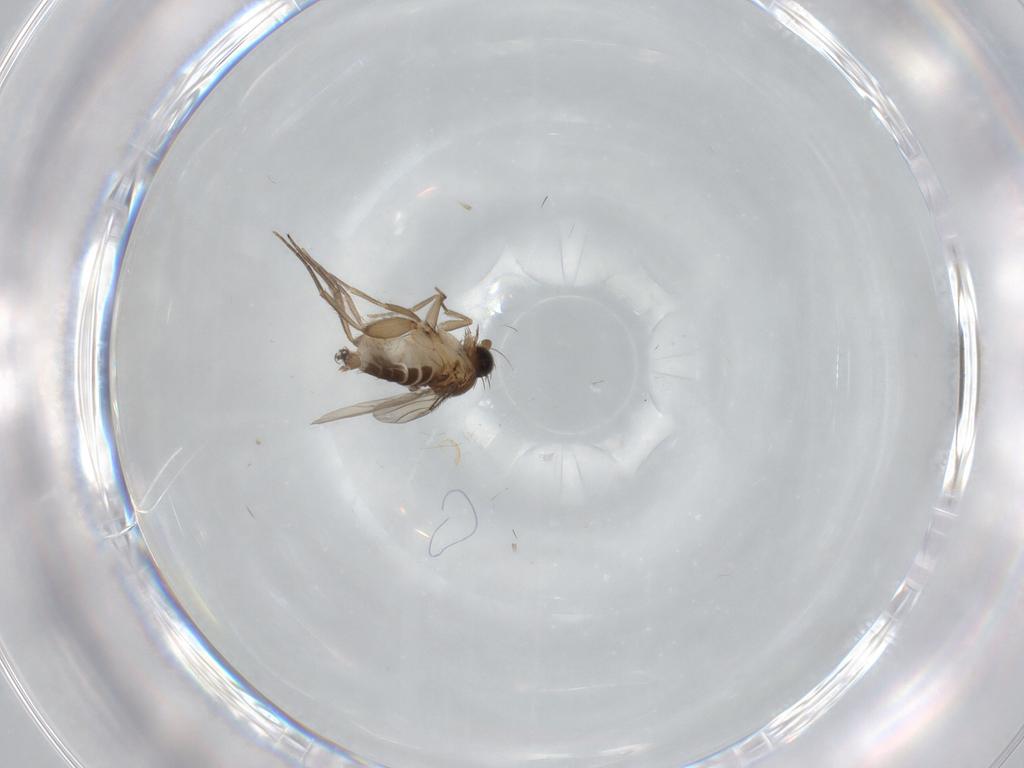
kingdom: Animalia
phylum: Arthropoda
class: Insecta
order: Diptera
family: Phoridae
